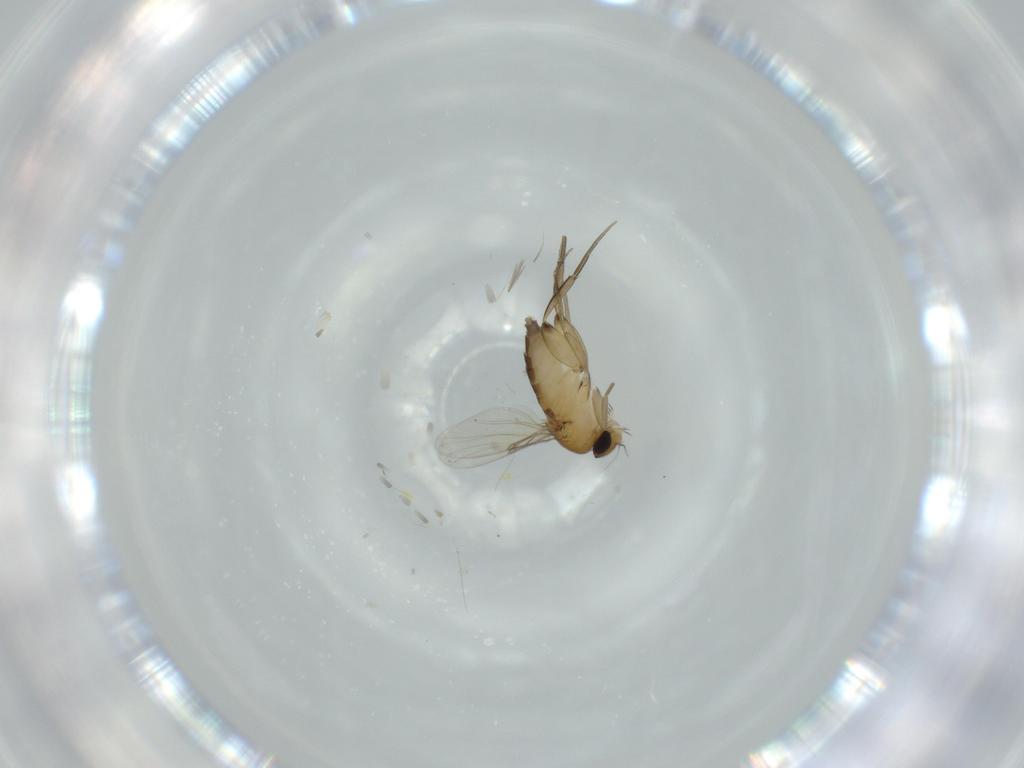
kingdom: Animalia
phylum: Arthropoda
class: Insecta
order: Diptera
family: Phoridae
